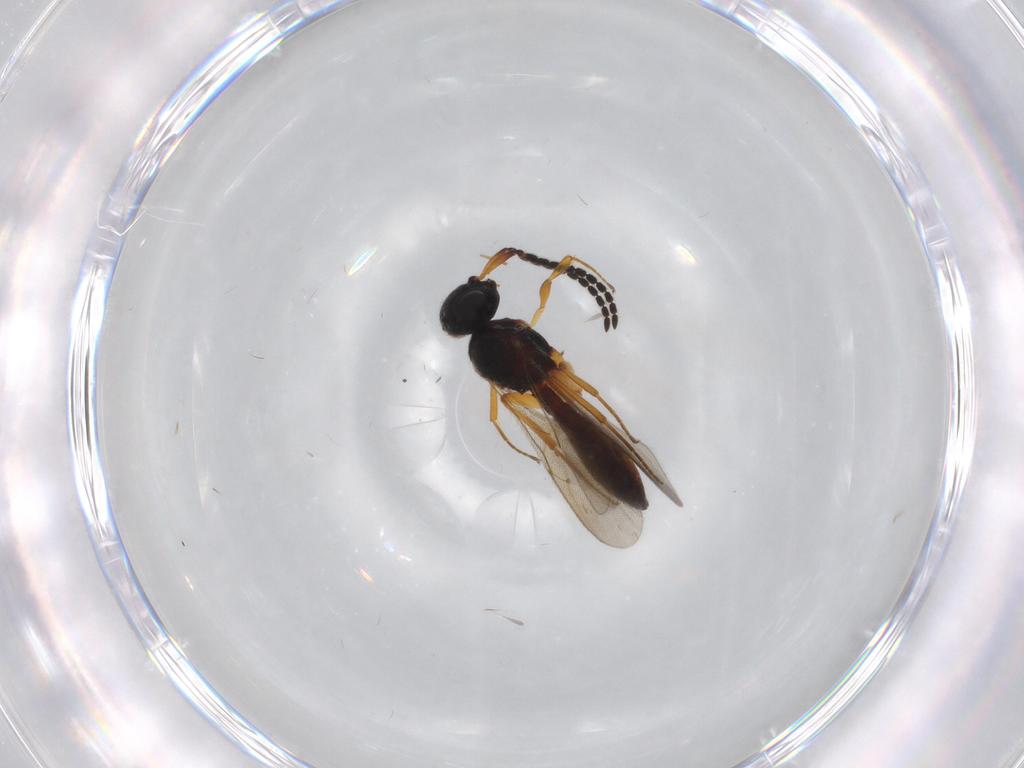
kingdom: Animalia
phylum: Arthropoda
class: Insecta
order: Hymenoptera
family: Scelionidae
